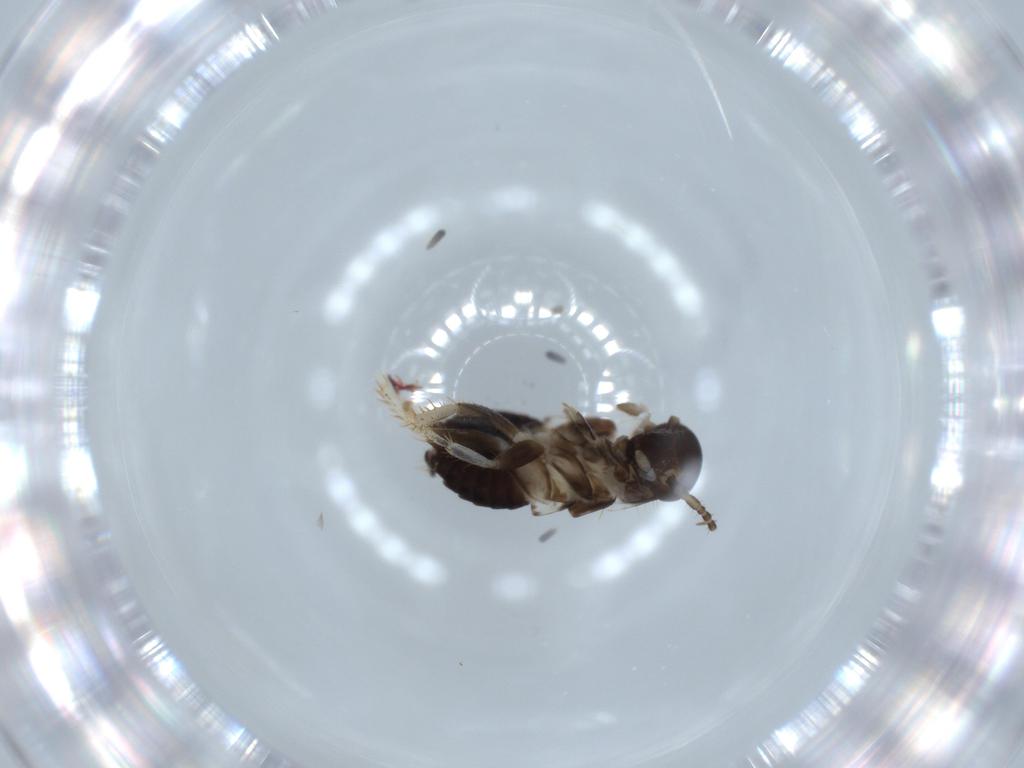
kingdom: Animalia
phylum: Arthropoda
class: Insecta
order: Blattodea
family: Ectobiidae
